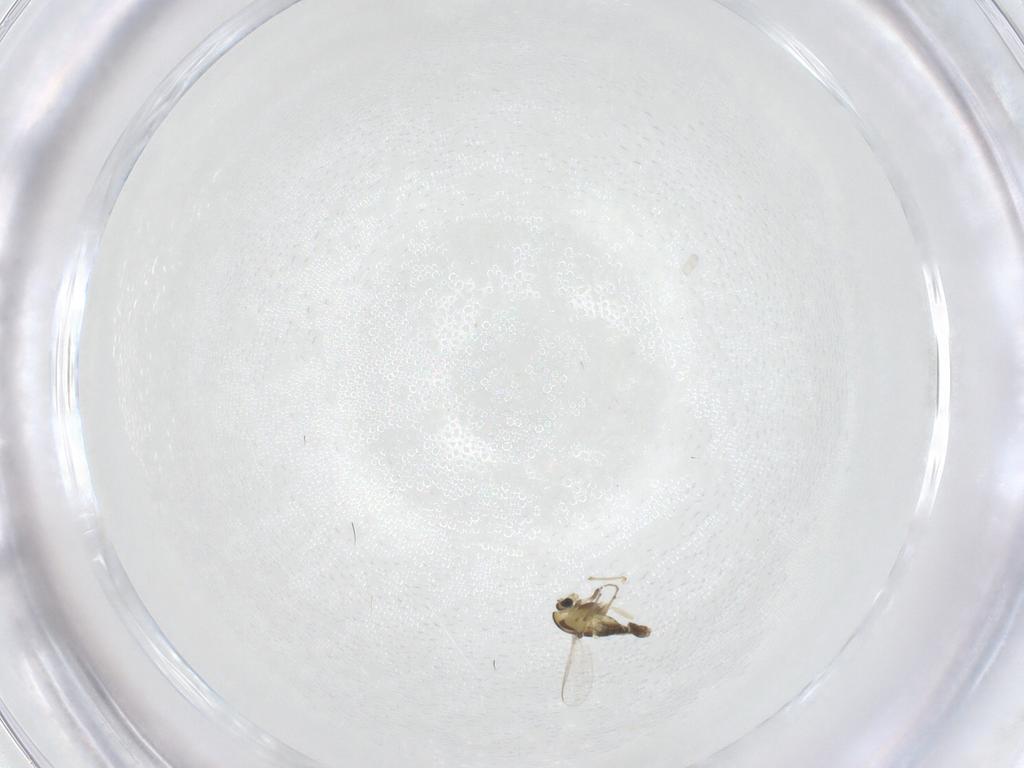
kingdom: Animalia
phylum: Arthropoda
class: Insecta
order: Diptera
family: Chironomidae
